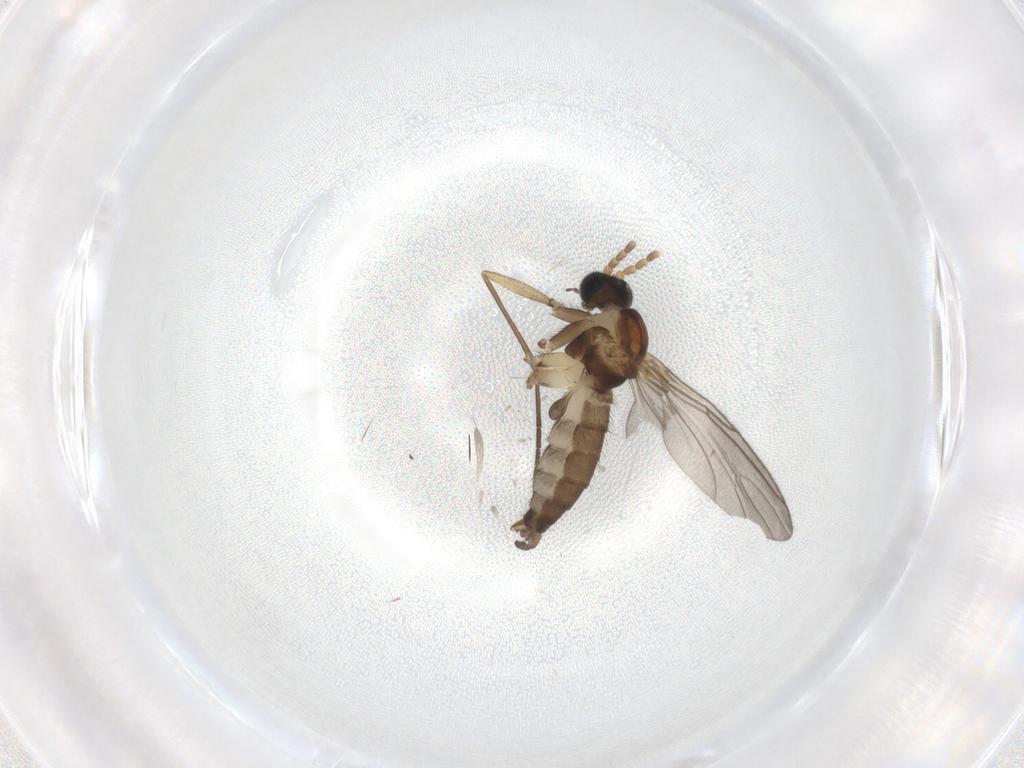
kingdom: Animalia
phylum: Arthropoda
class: Insecta
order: Diptera
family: Sciaridae
